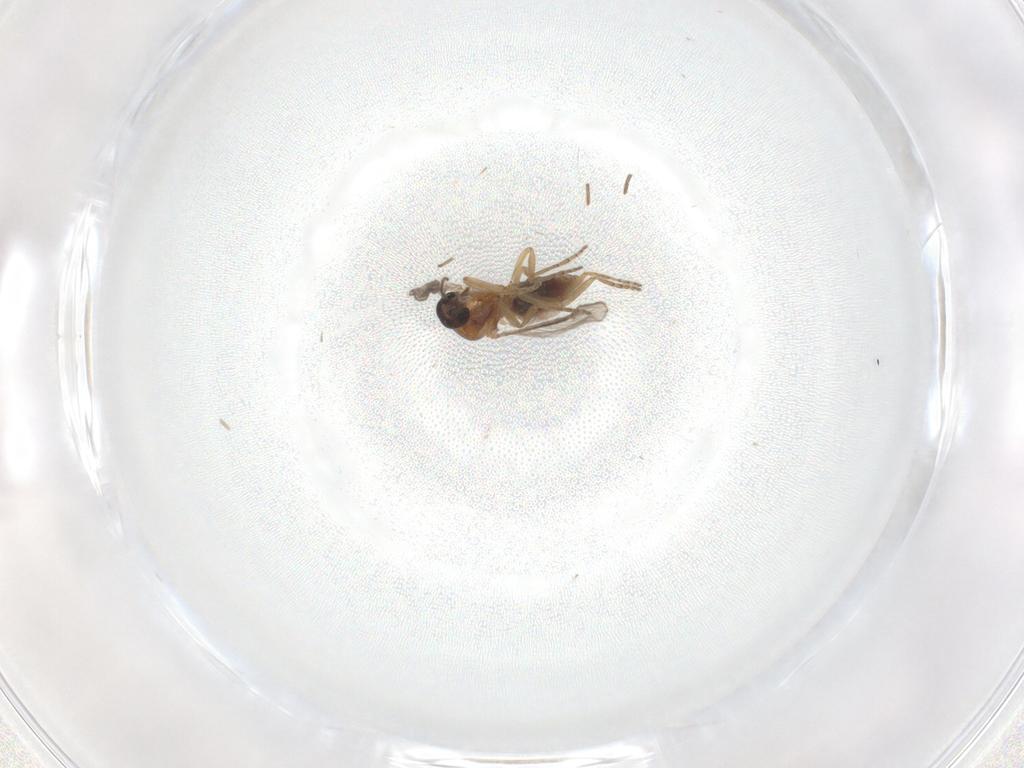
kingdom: Animalia
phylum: Arthropoda
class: Insecta
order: Diptera
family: Ceratopogonidae
